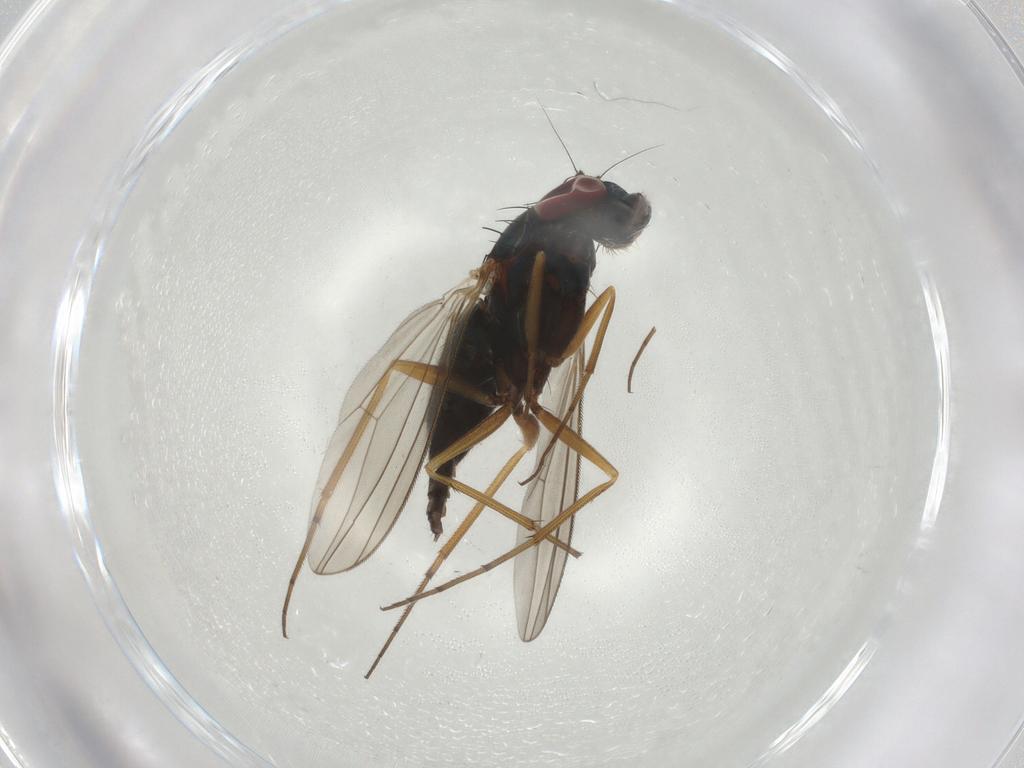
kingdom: Animalia
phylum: Arthropoda
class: Insecta
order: Diptera
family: Dolichopodidae
